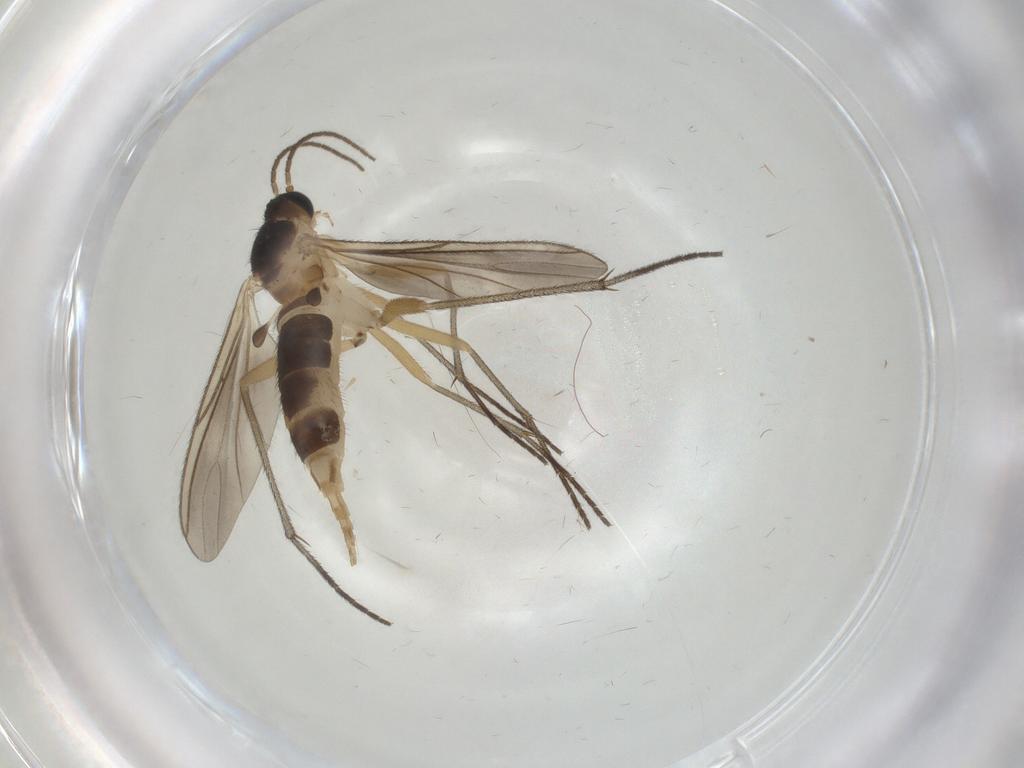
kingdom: Animalia
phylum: Arthropoda
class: Insecta
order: Diptera
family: Sciaridae
